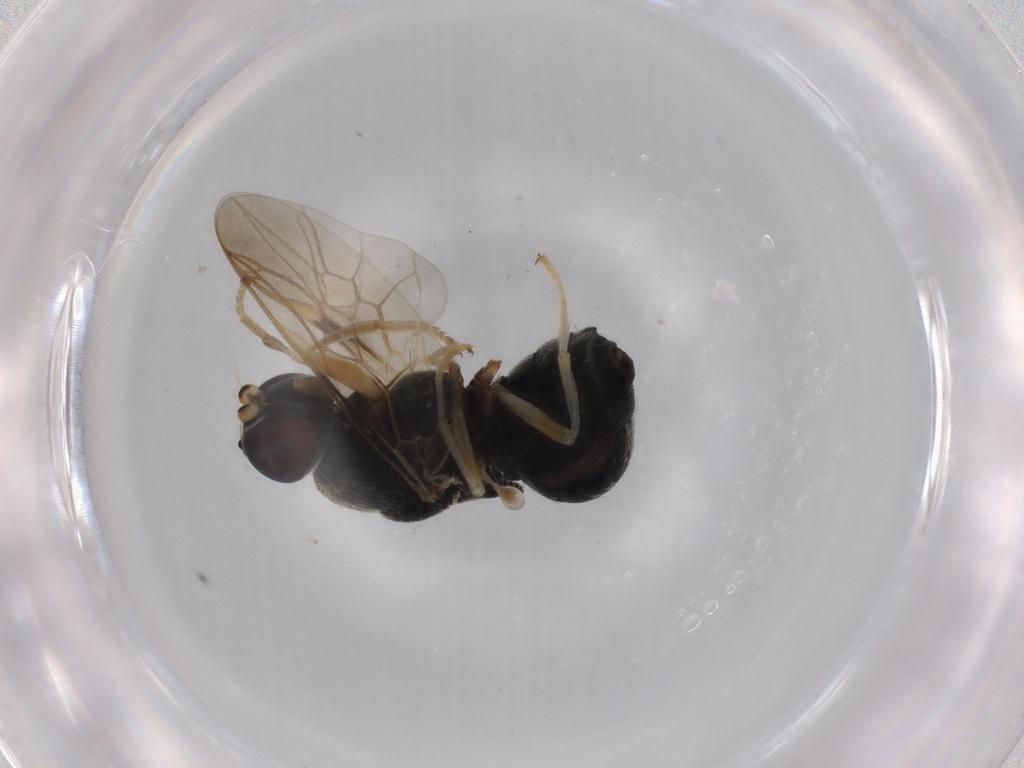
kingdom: Animalia
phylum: Arthropoda
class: Insecta
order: Diptera
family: Stratiomyidae
